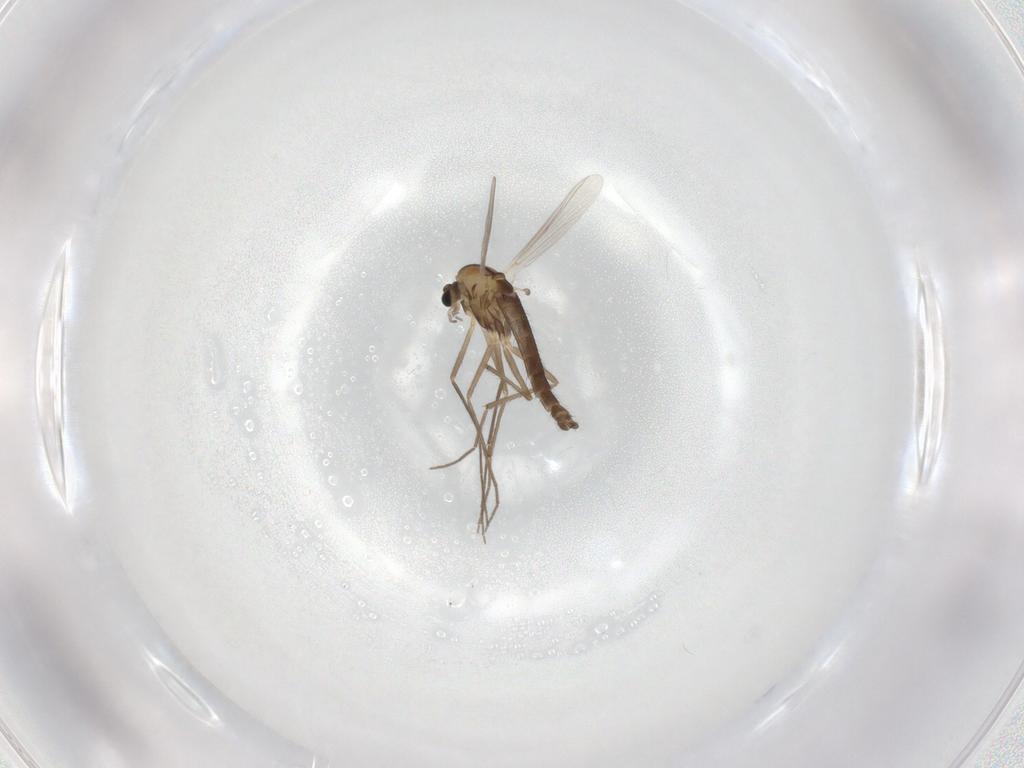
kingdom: Animalia
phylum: Arthropoda
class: Insecta
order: Diptera
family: Chironomidae
